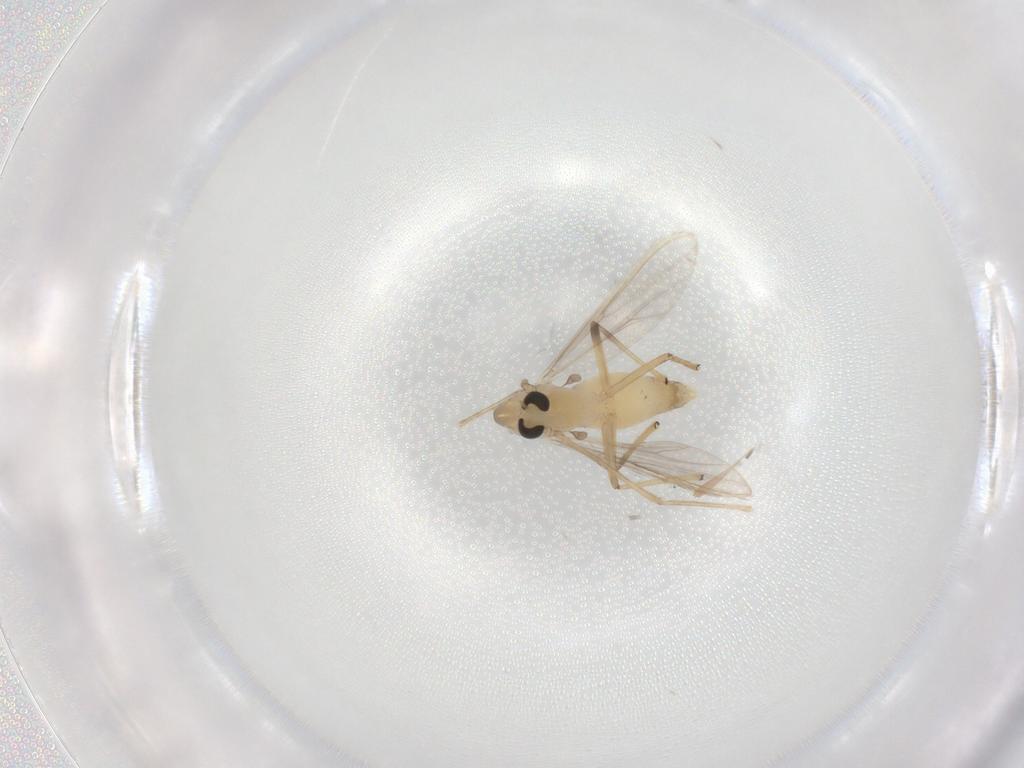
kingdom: Animalia
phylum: Arthropoda
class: Insecta
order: Diptera
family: Chironomidae
